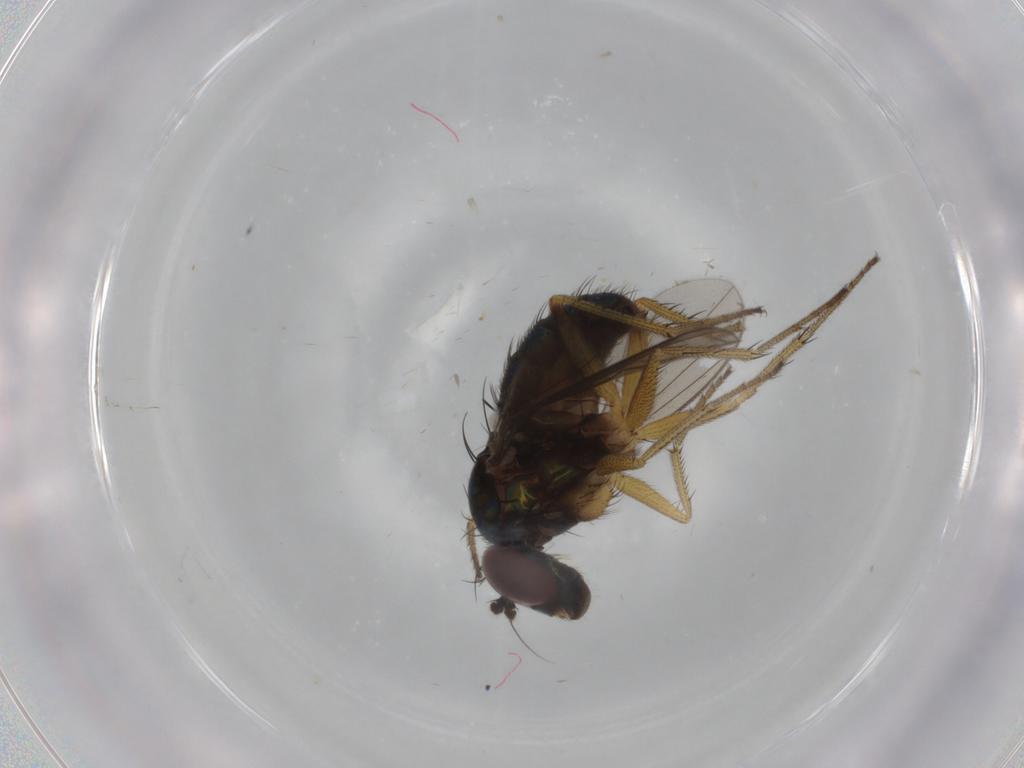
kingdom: Animalia
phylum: Arthropoda
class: Insecta
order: Diptera
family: Dolichopodidae
